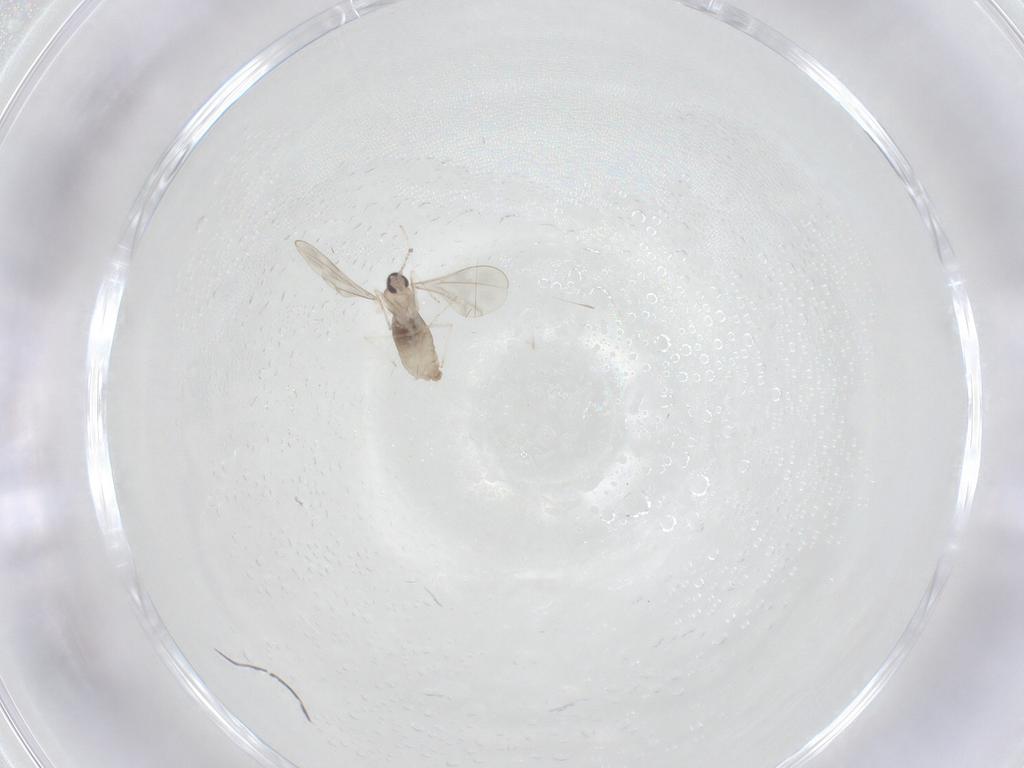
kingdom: Animalia
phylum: Arthropoda
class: Insecta
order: Diptera
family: Cecidomyiidae
